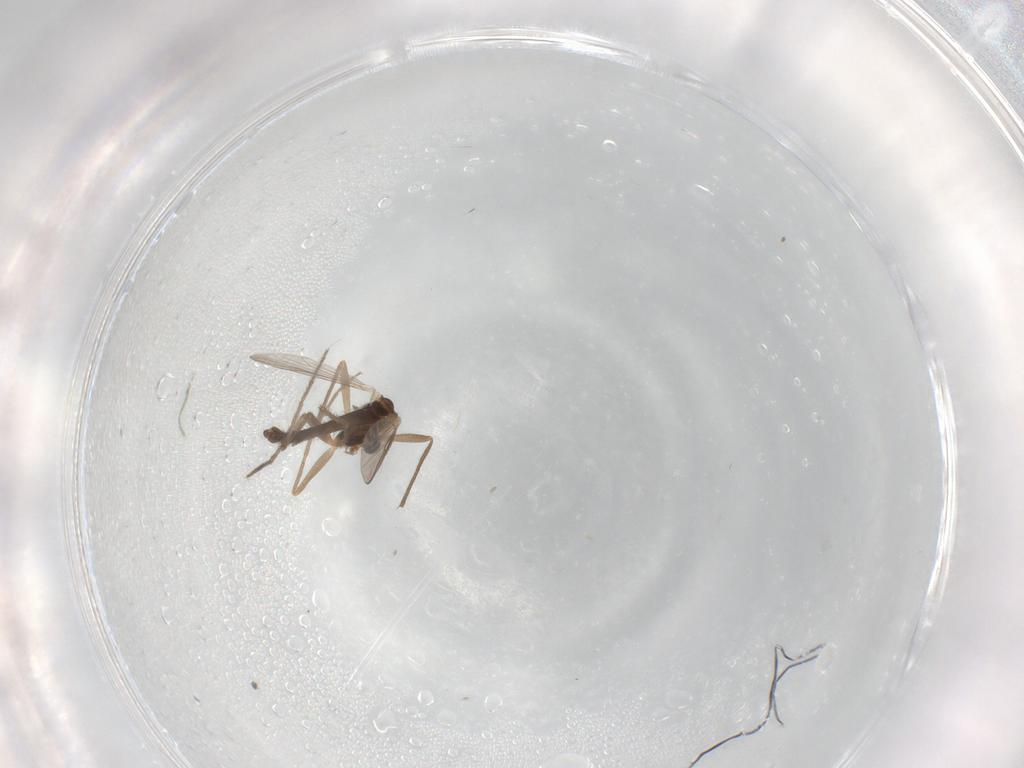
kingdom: Animalia
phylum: Arthropoda
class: Insecta
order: Diptera
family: Chironomidae
